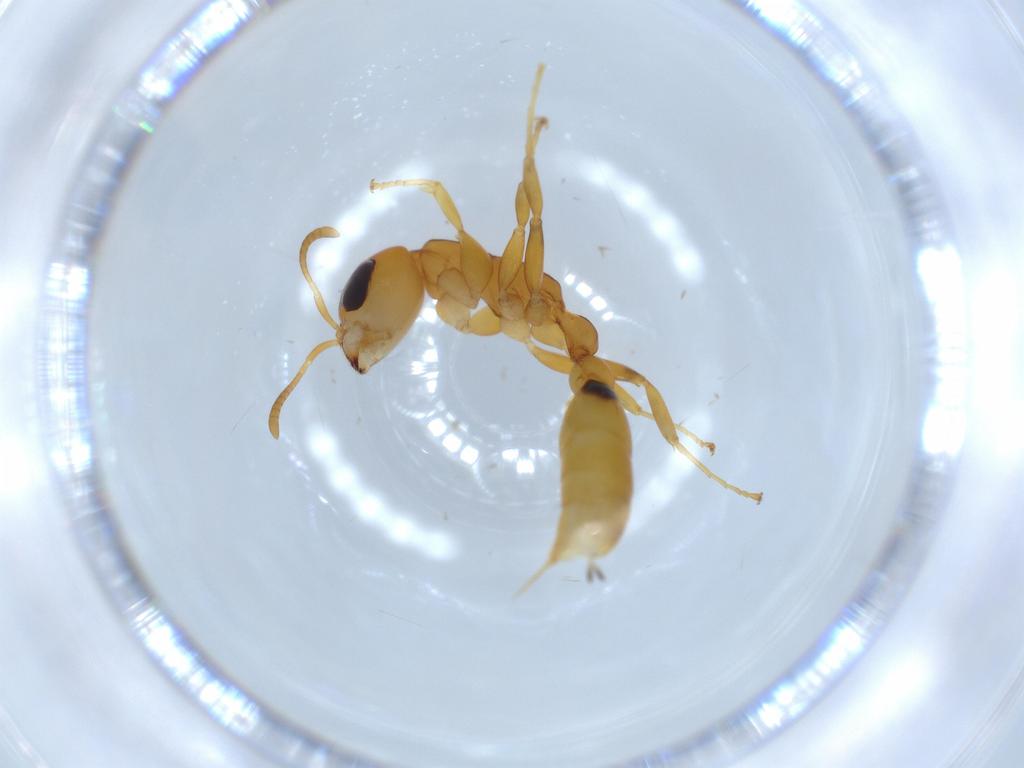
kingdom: Animalia
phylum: Arthropoda
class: Insecta
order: Hymenoptera
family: Formicidae
